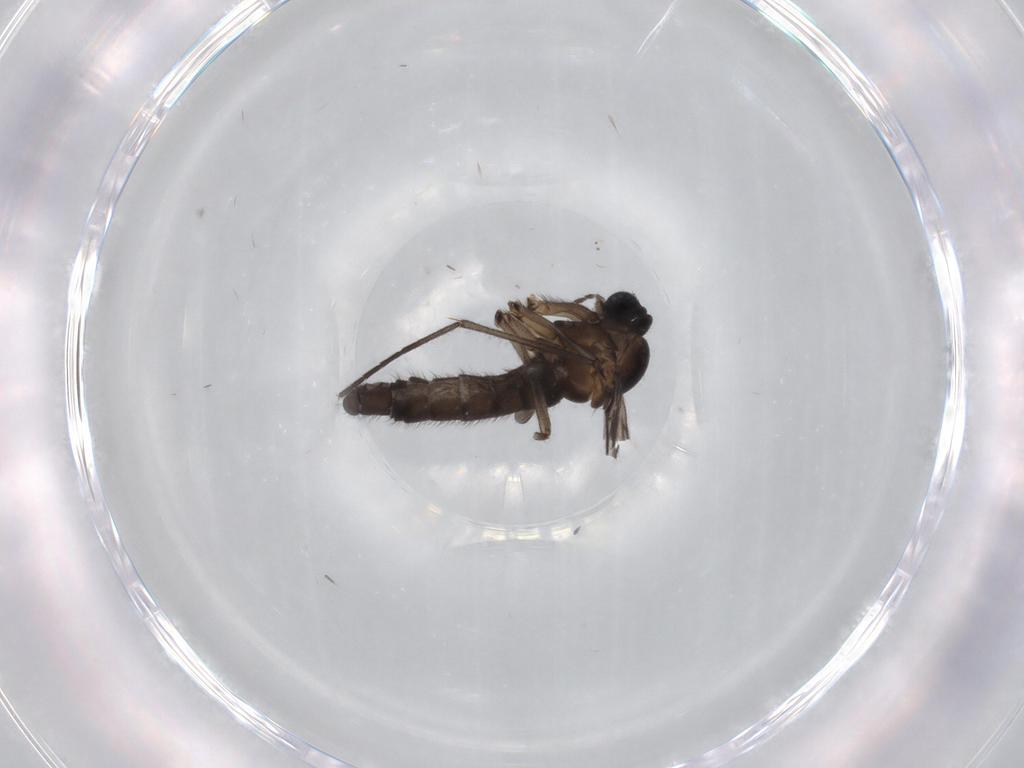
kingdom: Animalia
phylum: Arthropoda
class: Insecta
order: Diptera
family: Sciaridae
